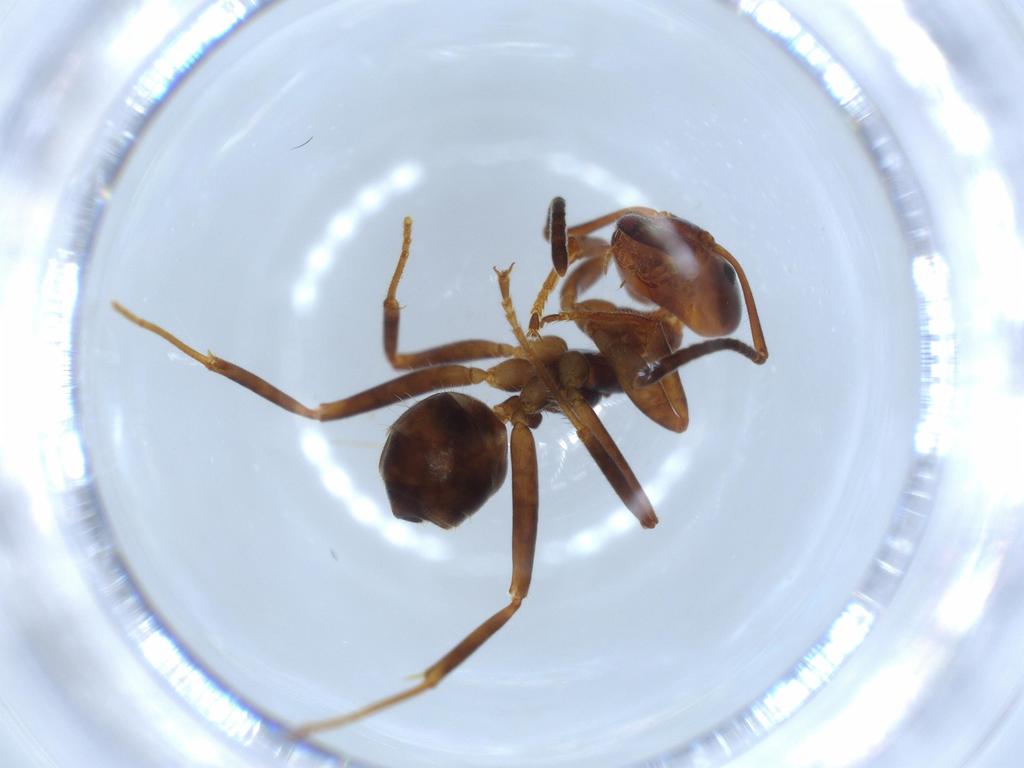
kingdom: Animalia
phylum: Arthropoda
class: Insecta
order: Hymenoptera
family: Formicidae
